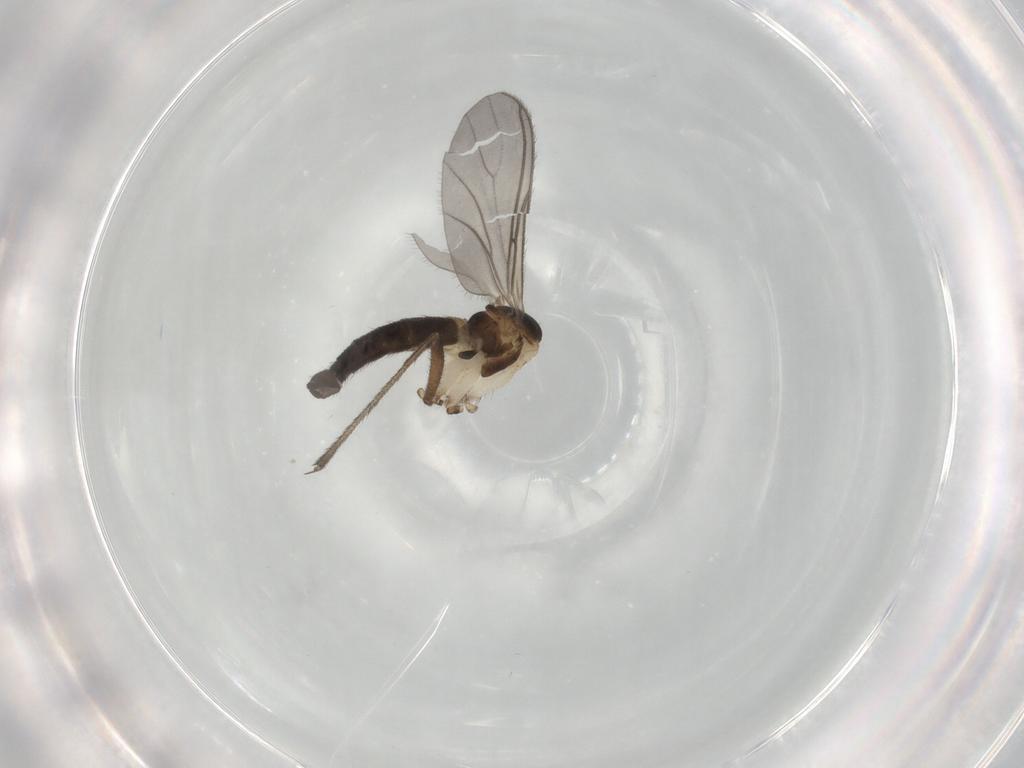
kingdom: Animalia
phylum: Arthropoda
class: Insecta
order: Diptera
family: Sciaridae
